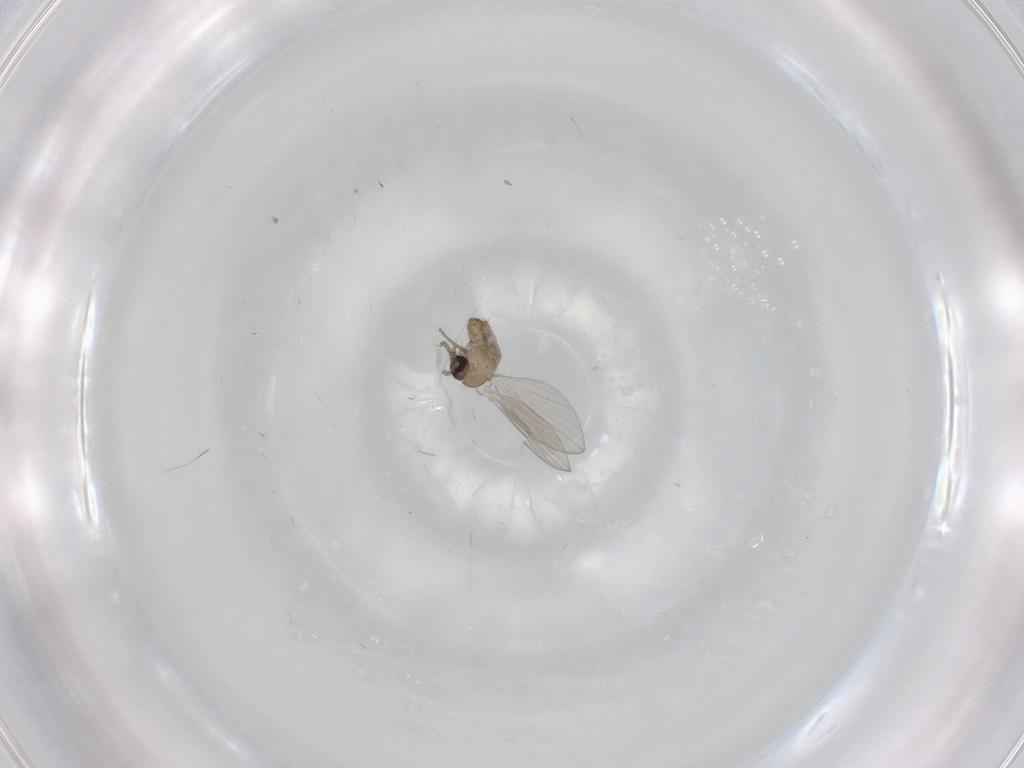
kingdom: Animalia
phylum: Arthropoda
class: Insecta
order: Diptera
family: Psychodidae
